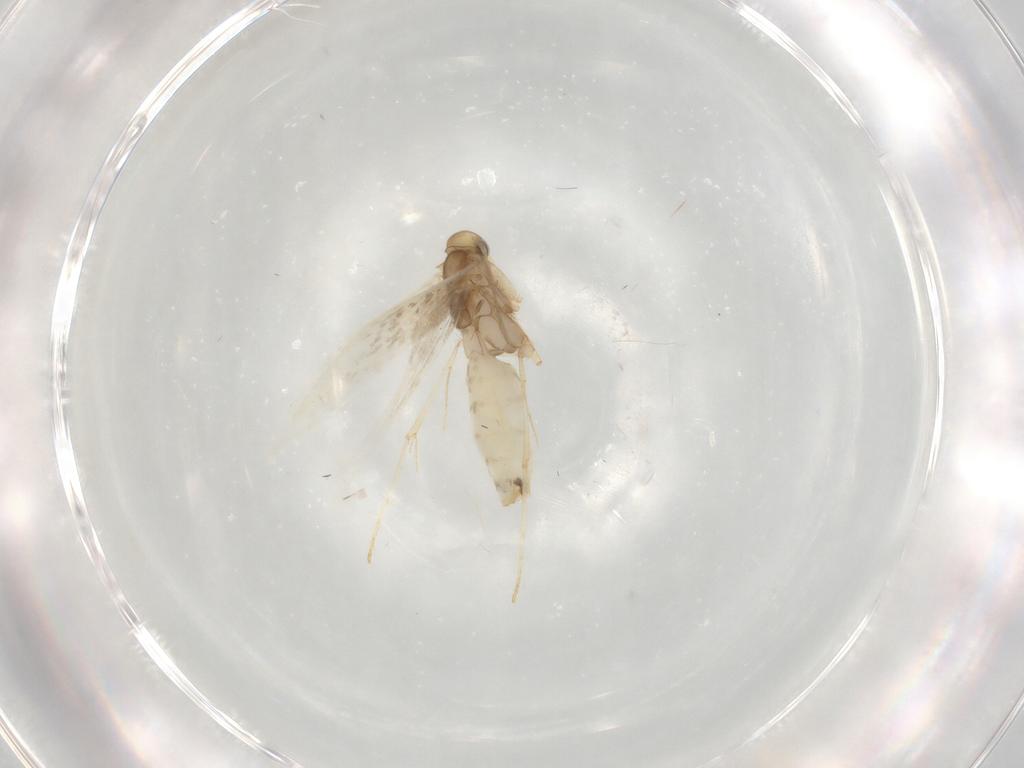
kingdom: Animalia
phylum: Arthropoda
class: Insecta
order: Lepidoptera
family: Gracillariidae
